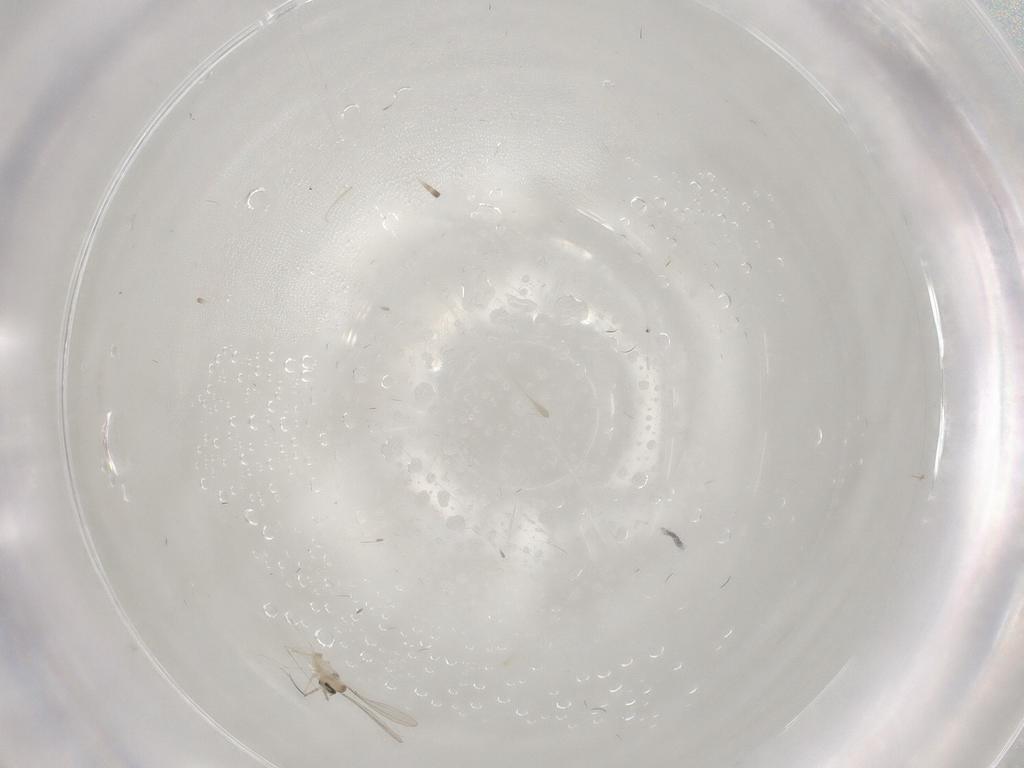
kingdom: Animalia
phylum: Arthropoda
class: Insecta
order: Diptera
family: Cecidomyiidae
